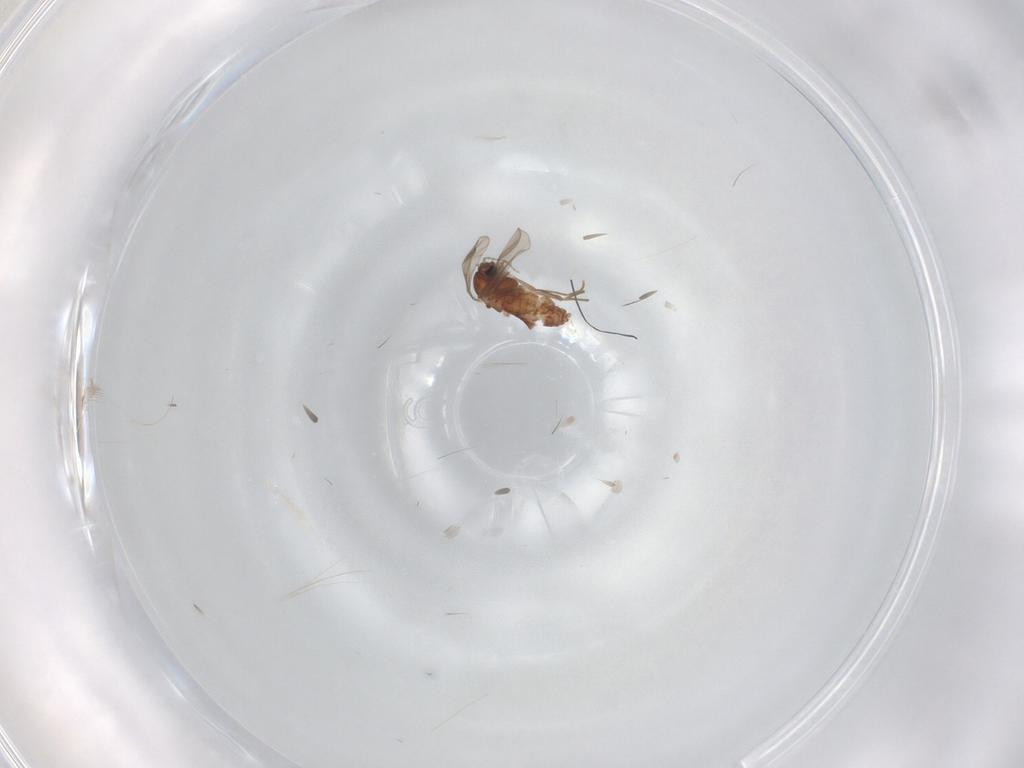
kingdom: Animalia
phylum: Arthropoda
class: Insecta
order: Diptera
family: Chironomidae
